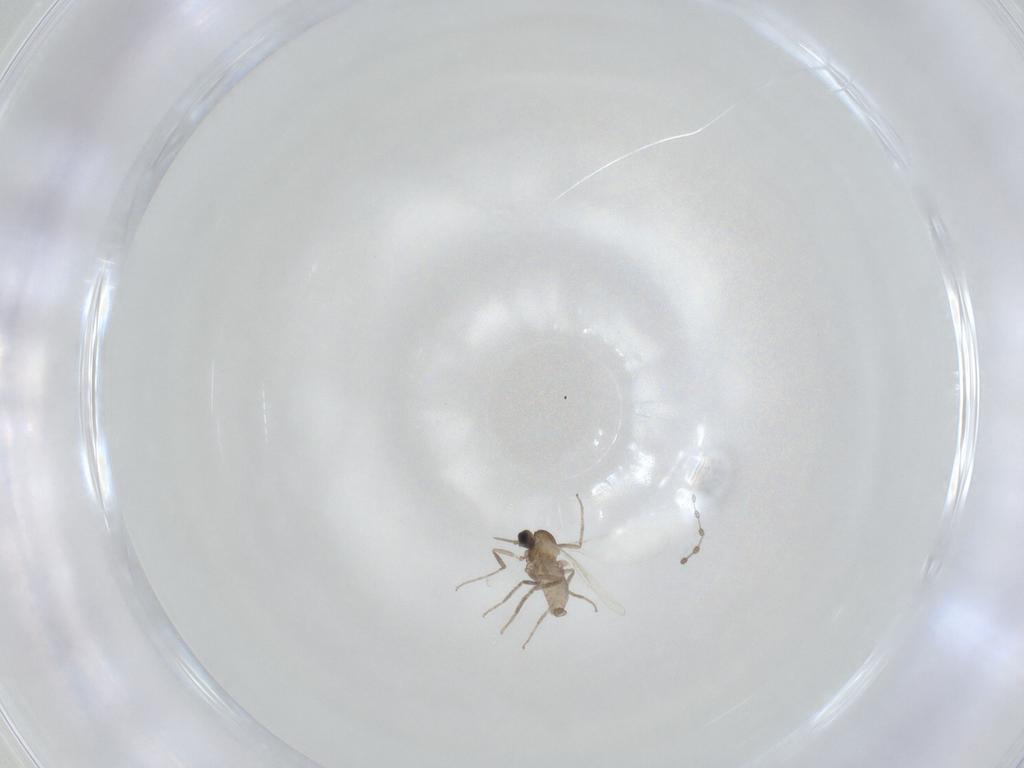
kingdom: Animalia
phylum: Arthropoda
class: Insecta
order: Diptera
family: Cecidomyiidae
